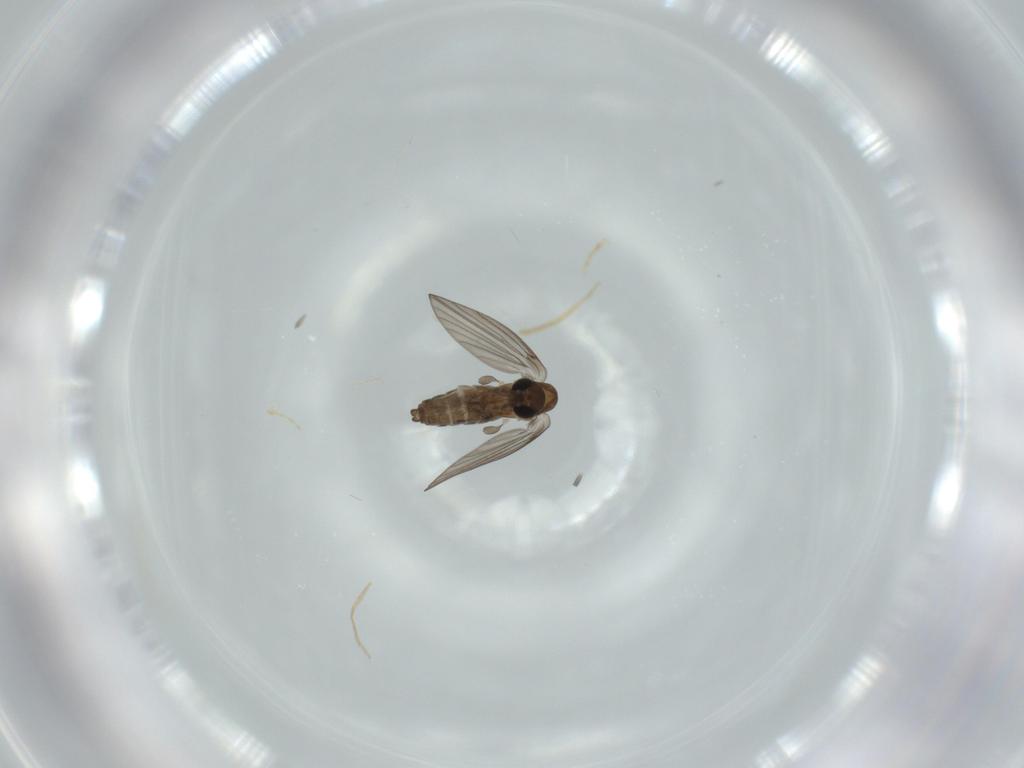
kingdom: Animalia
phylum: Arthropoda
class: Insecta
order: Diptera
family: Psychodidae
